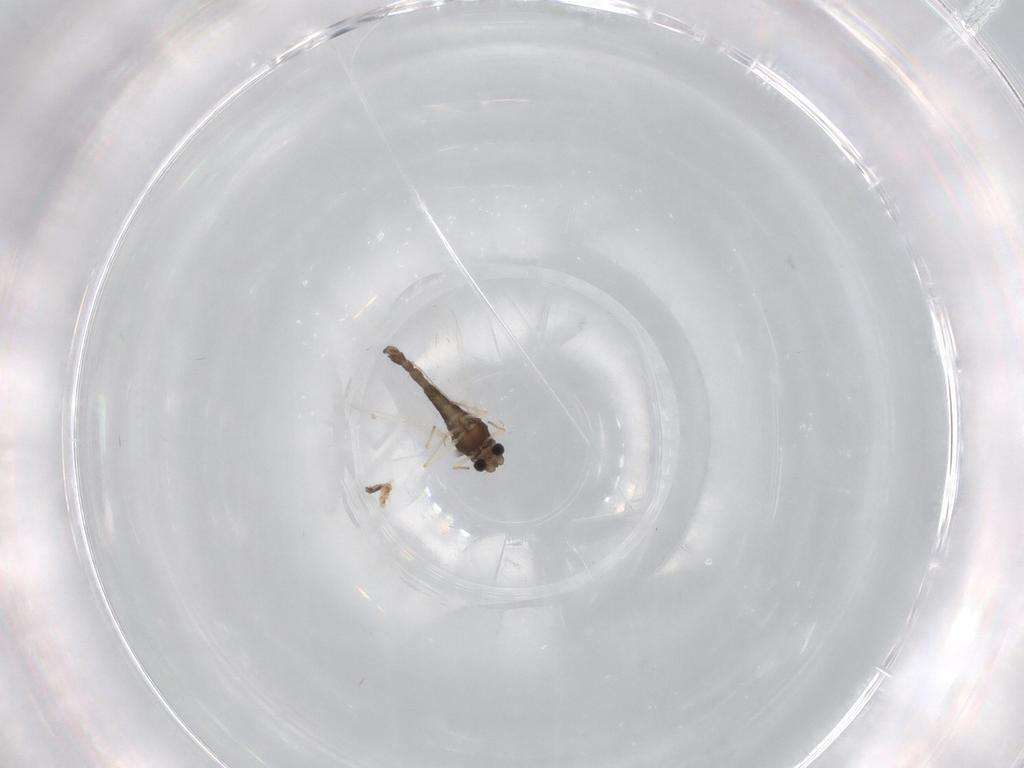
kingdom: Animalia
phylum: Arthropoda
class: Insecta
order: Diptera
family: Chironomidae
